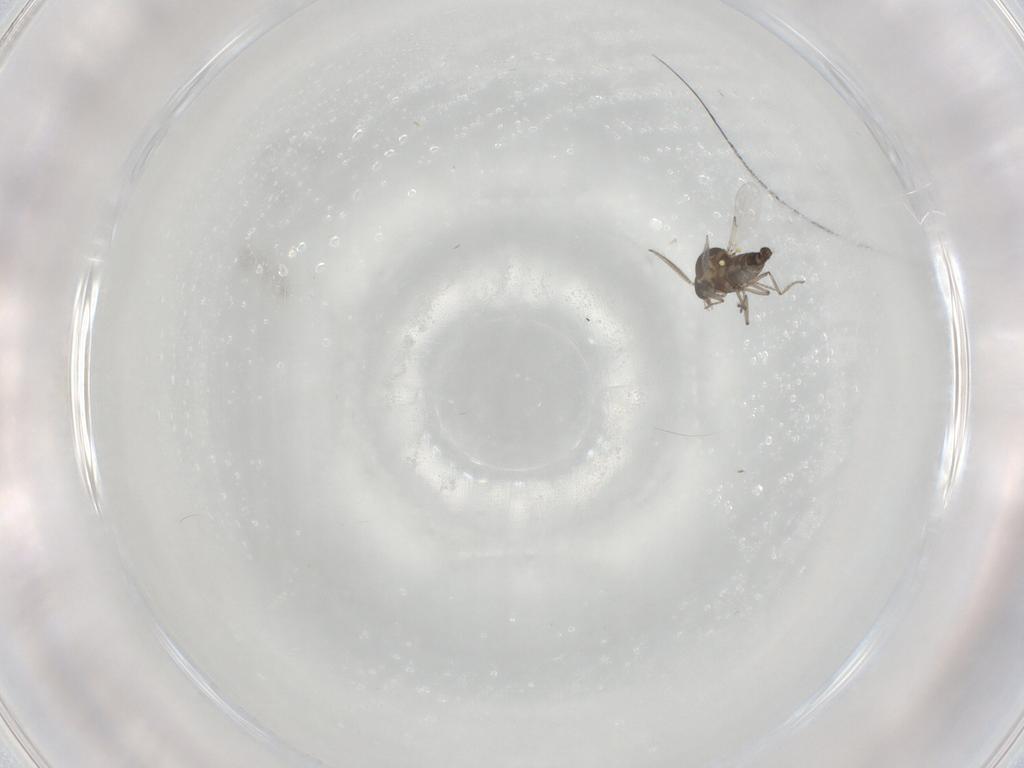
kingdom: Animalia
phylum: Arthropoda
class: Insecta
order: Diptera
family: Ceratopogonidae
